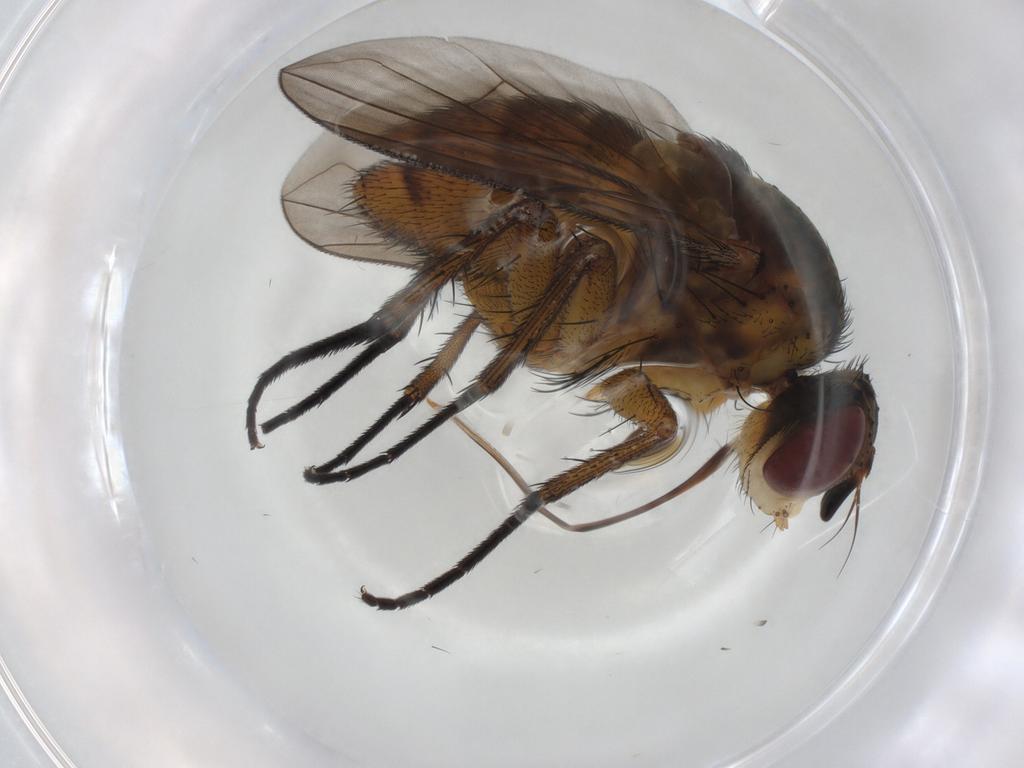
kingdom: Animalia
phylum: Arthropoda
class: Insecta
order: Diptera
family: Tachinidae
